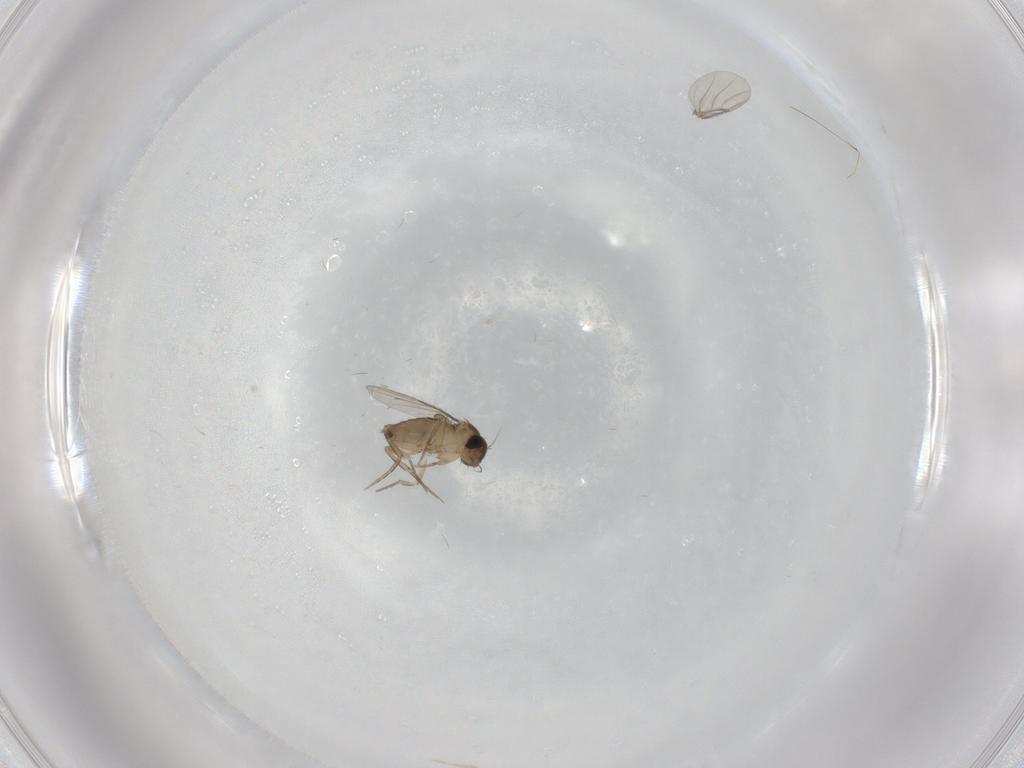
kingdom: Animalia
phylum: Arthropoda
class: Insecta
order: Diptera
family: Phoridae
